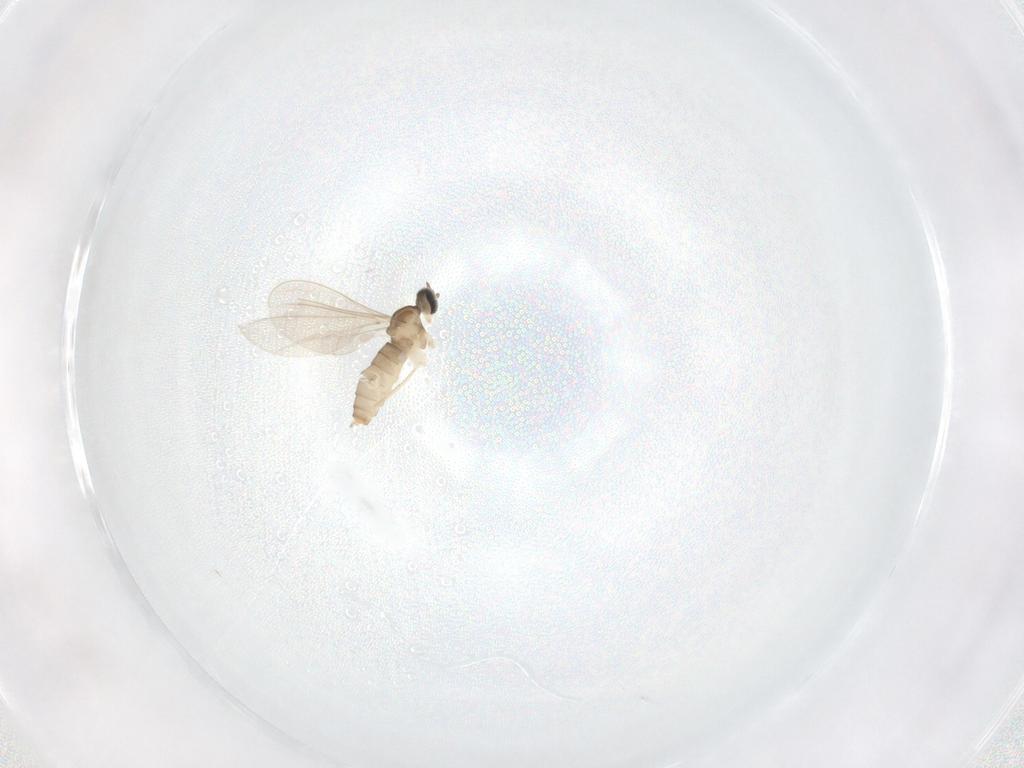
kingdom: Animalia
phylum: Arthropoda
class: Insecta
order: Diptera
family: Cecidomyiidae
